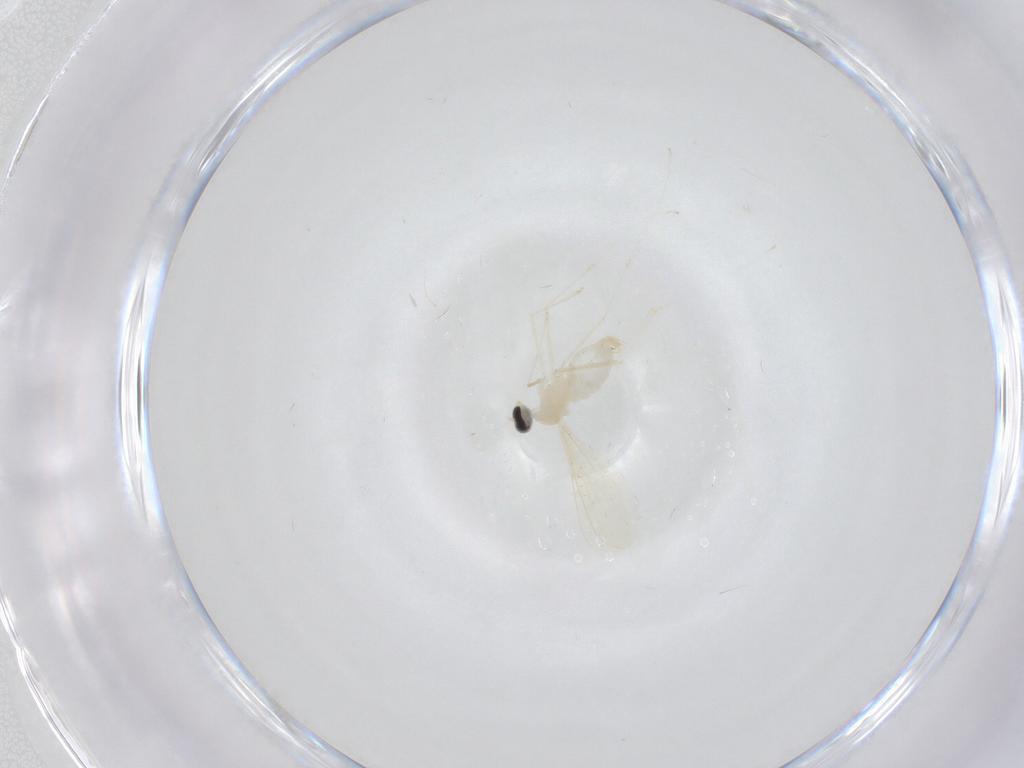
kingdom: Animalia
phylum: Arthropoda
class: Insecta
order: Diptera
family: Cecidomyiidae
